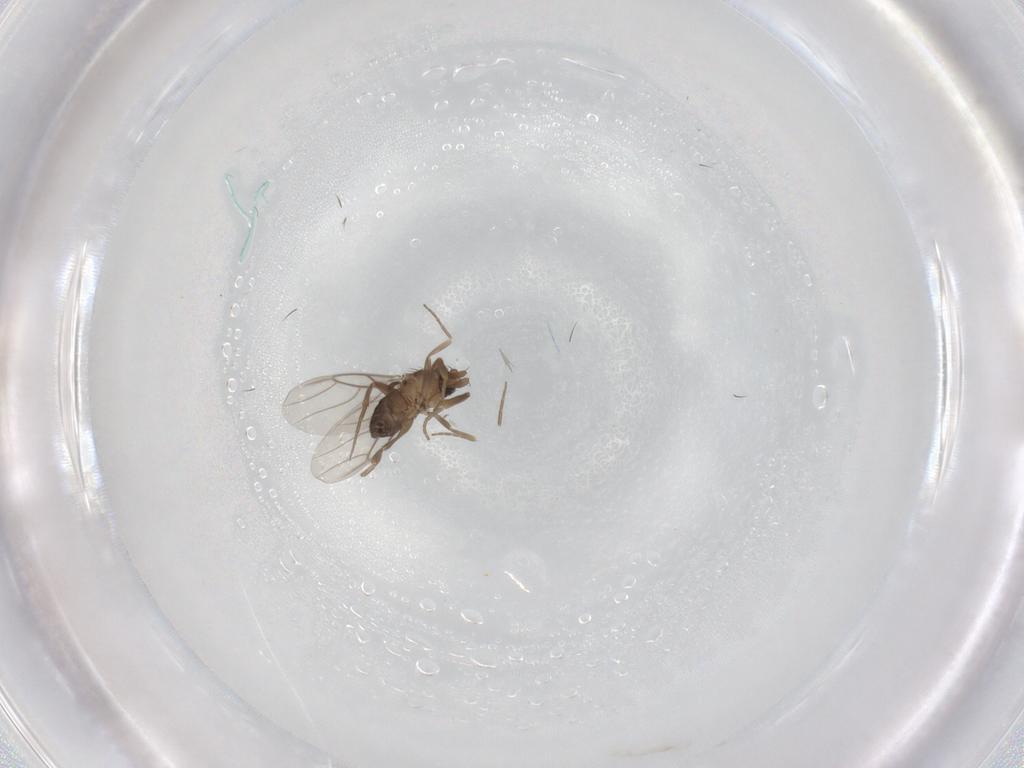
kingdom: Animalia
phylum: Arthropoda
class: Insecta
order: Diptera
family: Phoridae
